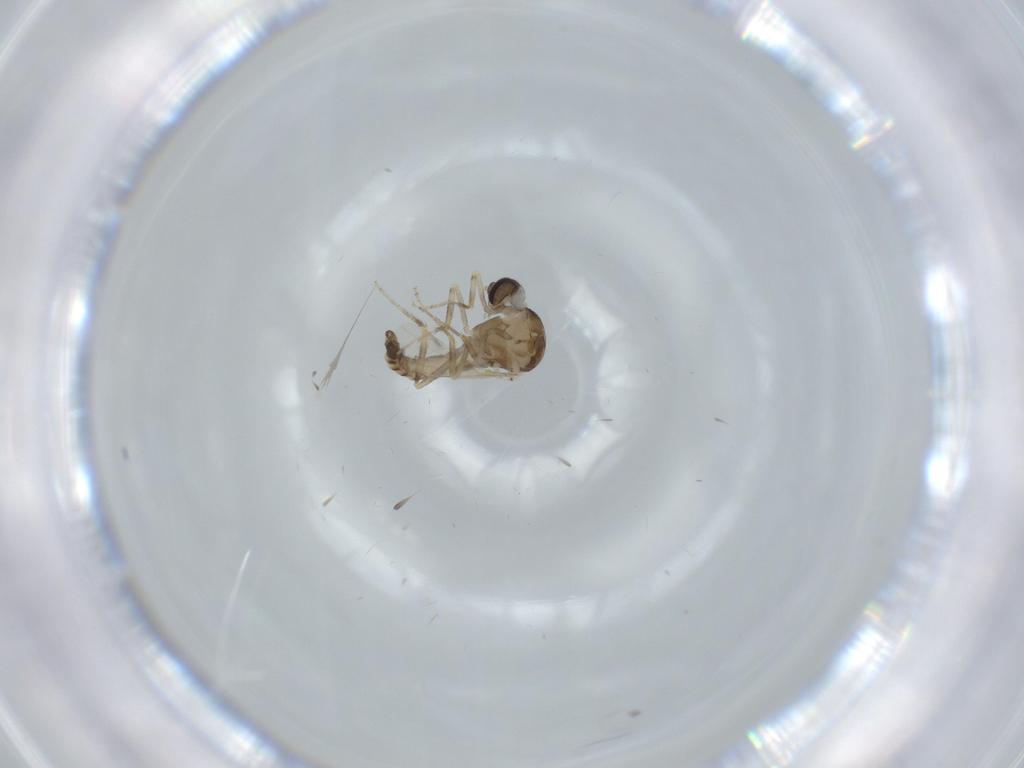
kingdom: Animalia
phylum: Arthropoda
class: Insecta
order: Diptera
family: Ceratopogonidae
